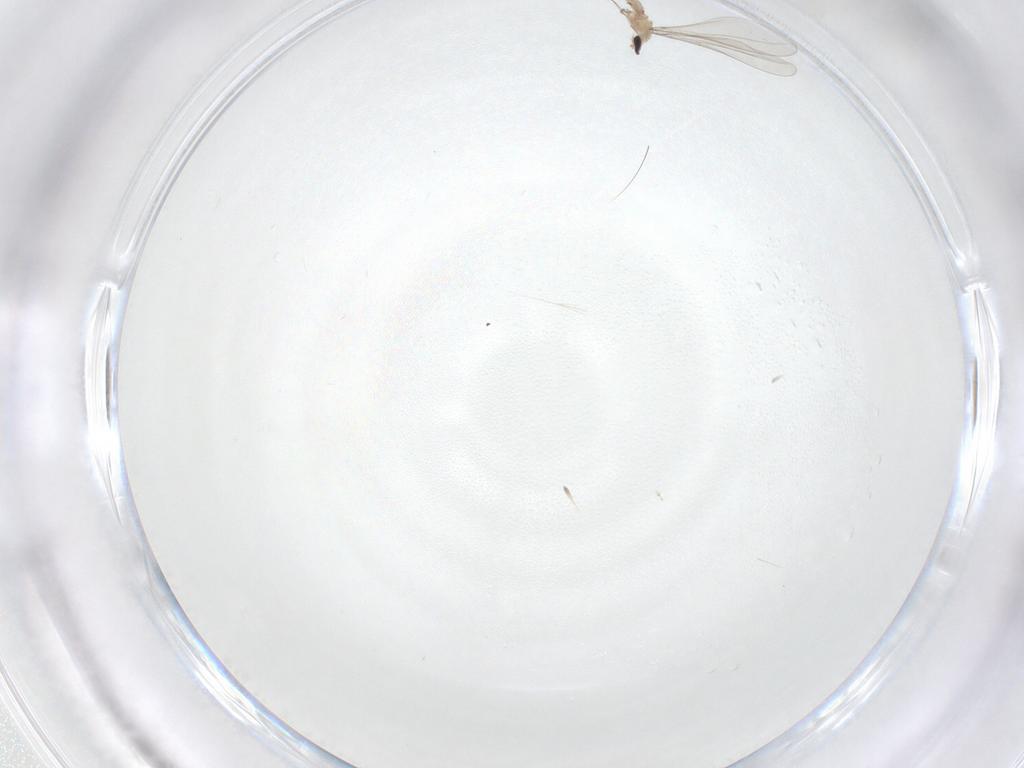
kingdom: Animalia
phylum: Arthropoda
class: Insecta
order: Diptera
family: Cecidomyiidae
